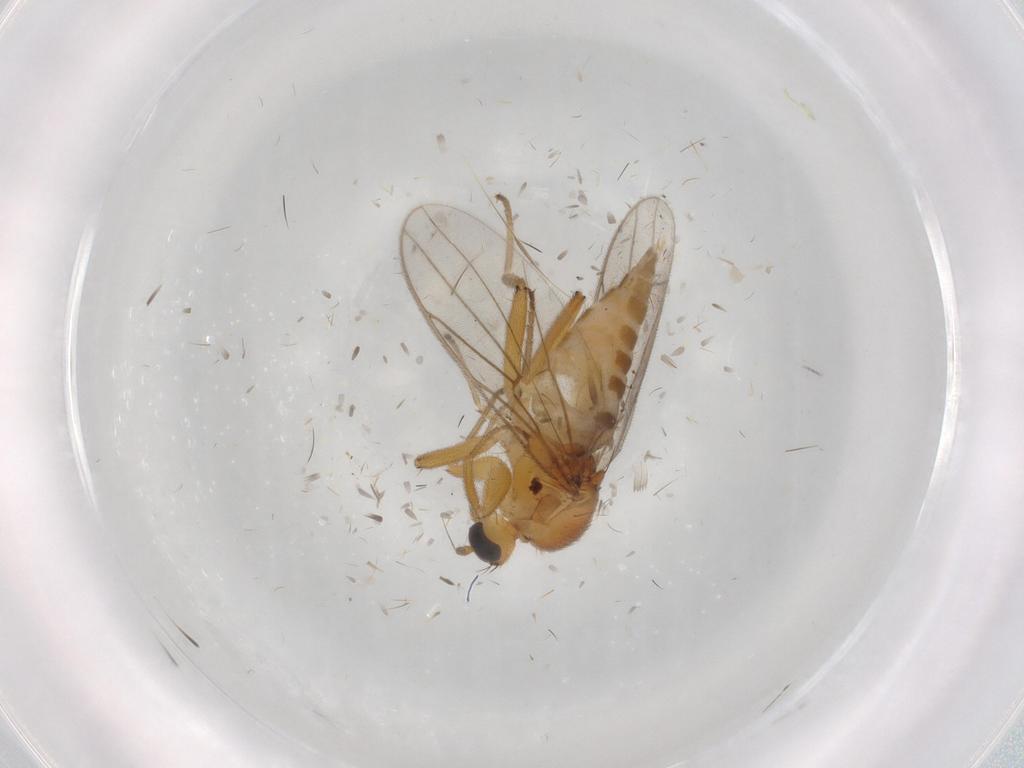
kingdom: Animalia
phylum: Arthropoda
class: Insecta
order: Diptera
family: Hybotidae
